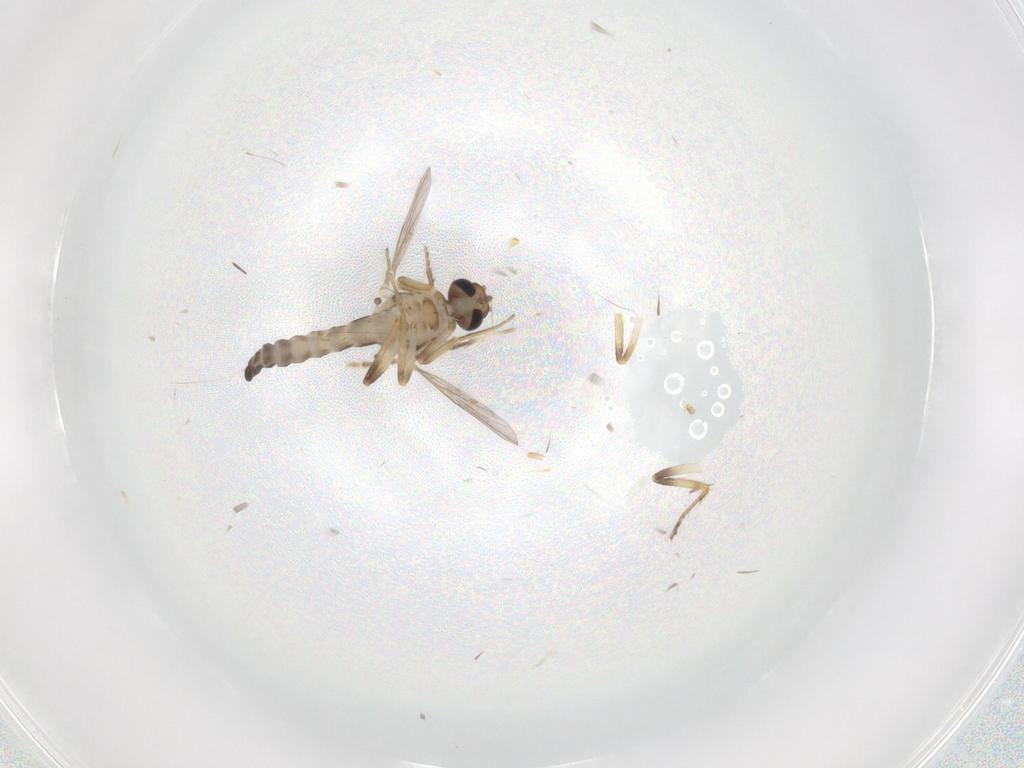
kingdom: Animalia
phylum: Arthropoda
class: Insecta
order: Diptera
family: Ceratopogonidae
